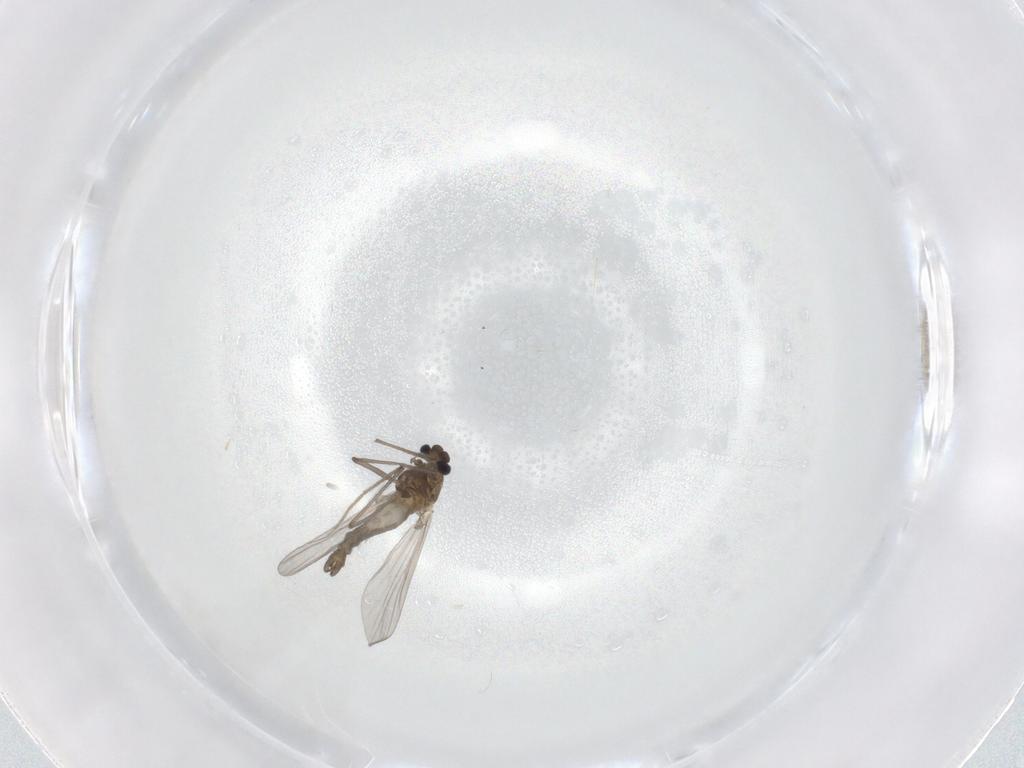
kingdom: Animalia
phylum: Arthropoda
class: Insecta
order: Diptera
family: Chironomidae
